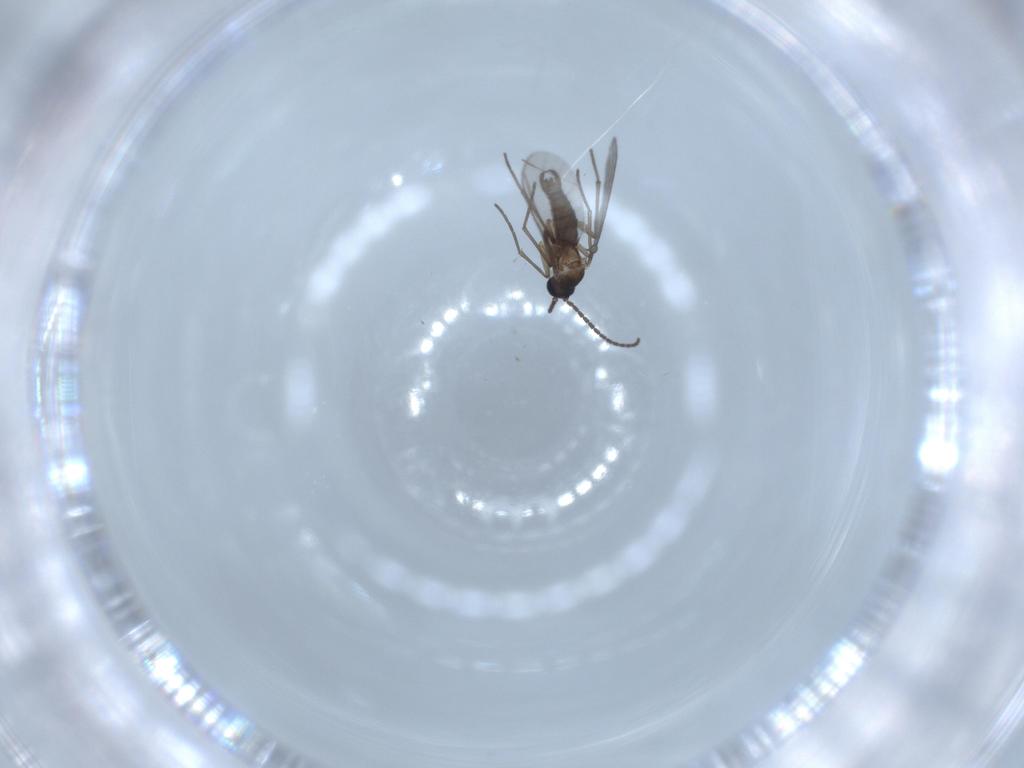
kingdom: Animalia
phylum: Arthropoda
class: Insecta
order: Diptera
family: Sciaridae
